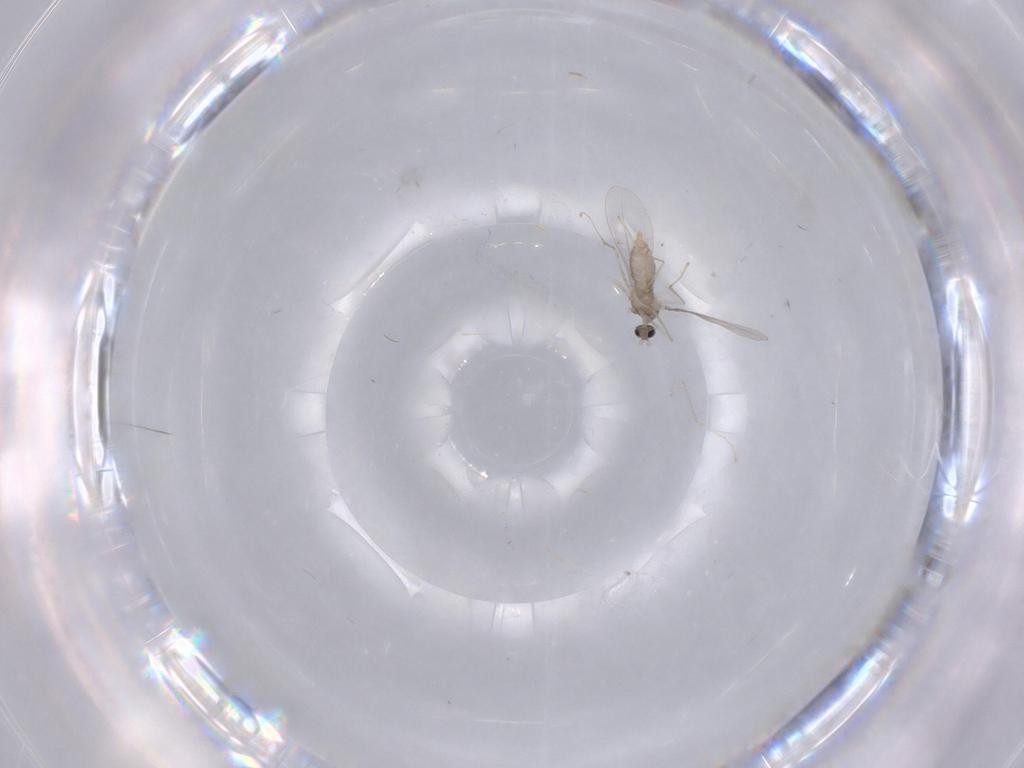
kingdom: Animalia
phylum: Arthropoda
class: Insecta
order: Diptera
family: Cecidomyiidae
